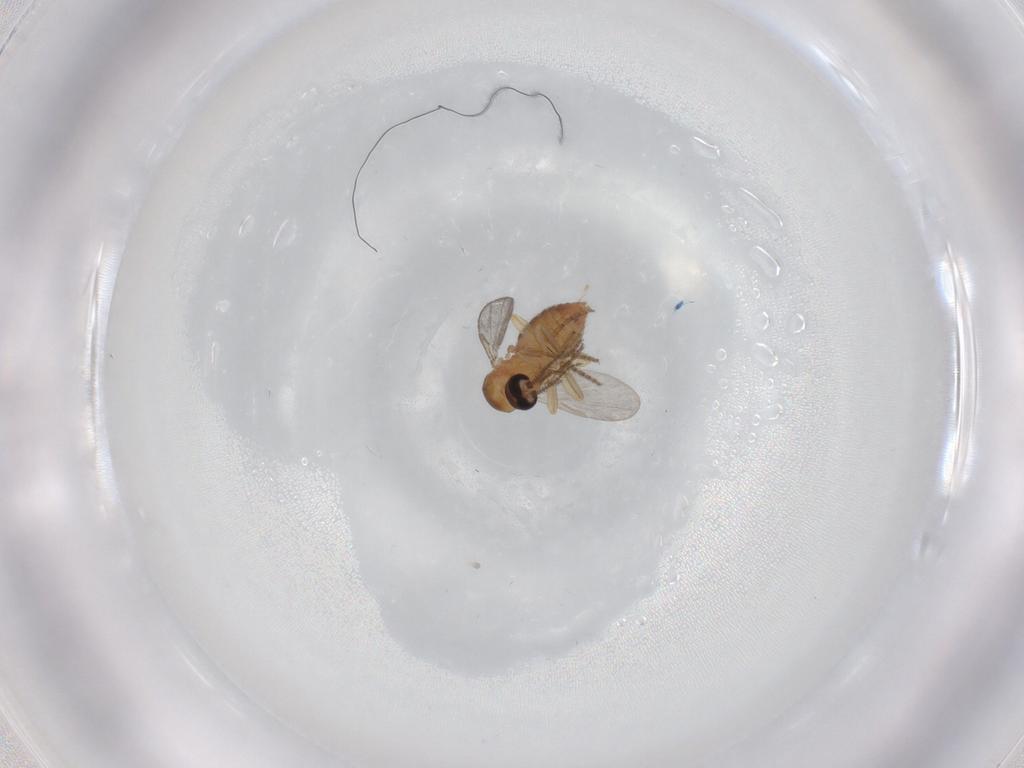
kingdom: Animalia
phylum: Arthropoda
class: Insecta
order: Diptera
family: Ceratopogonidae
